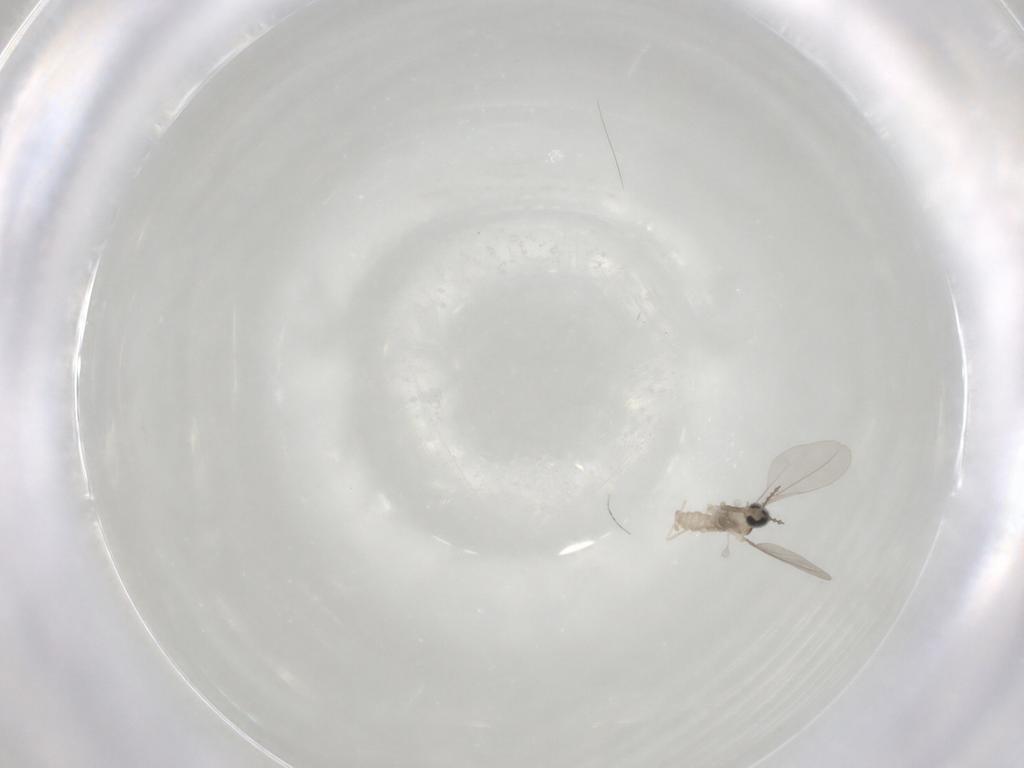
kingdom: Animalia
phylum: Arthropoda
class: Insecta
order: Diptera
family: Cecidomyiidae
